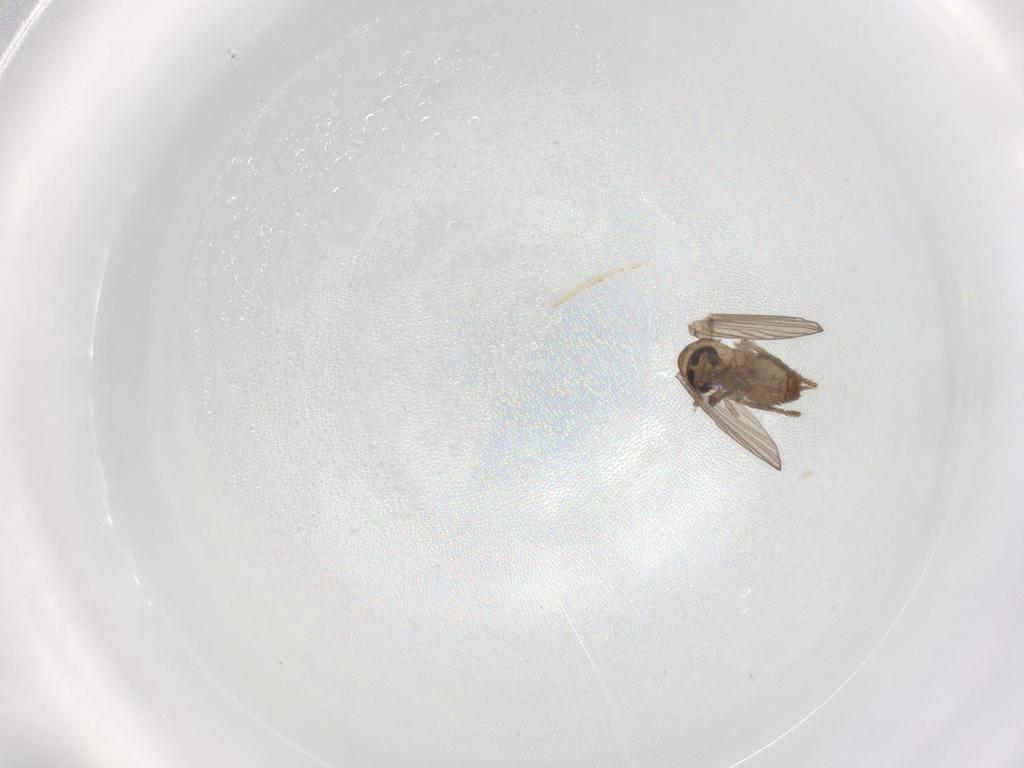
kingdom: Animalia
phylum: Arthropoda
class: Insecta
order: Diptera
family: Psychodidae
